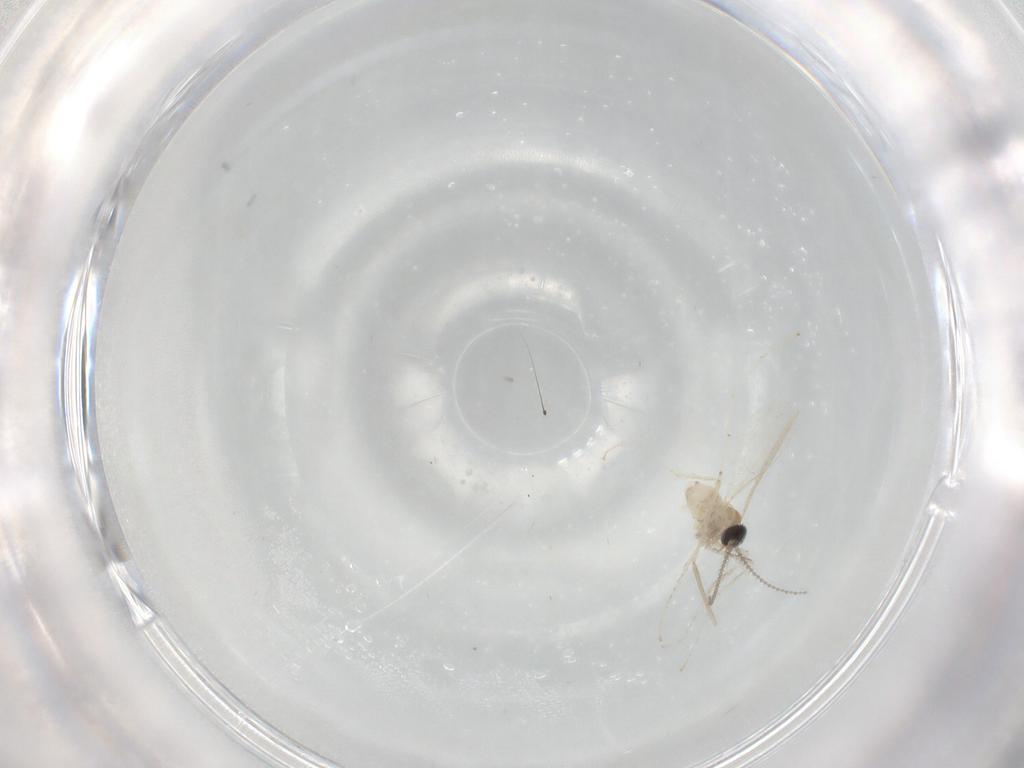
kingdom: Animalia
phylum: Arthropoda
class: Insecta
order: Diptera
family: Cecidomyiidae
